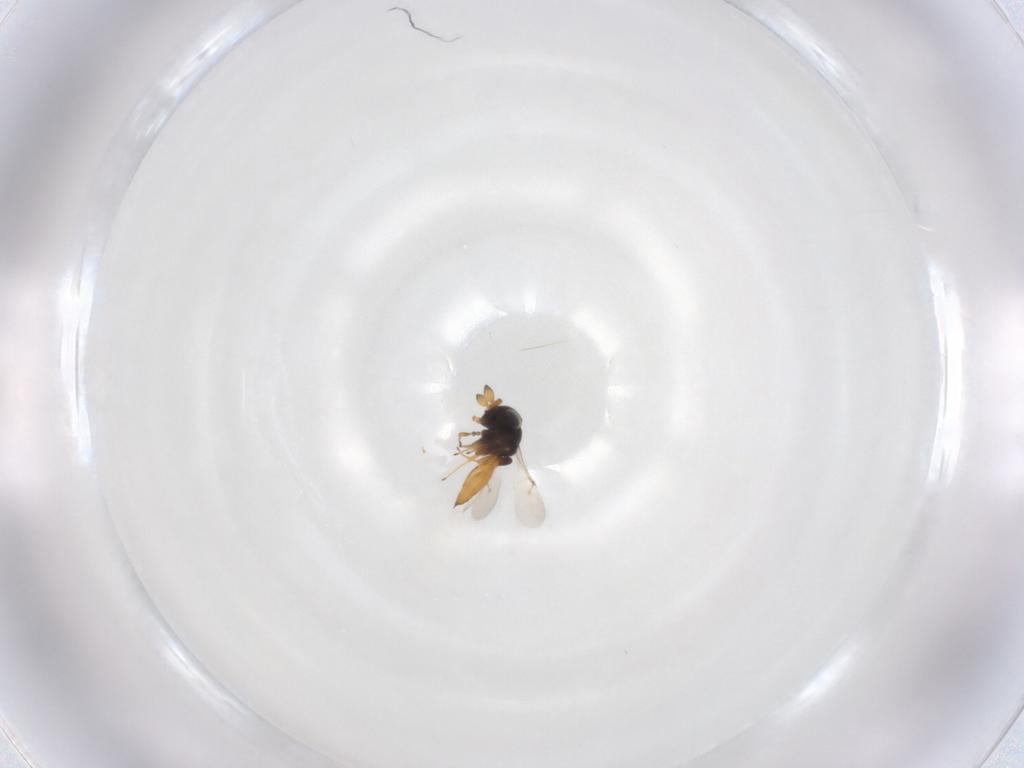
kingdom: Animalia
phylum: Arthropoda
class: Insecta
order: Hymenoptera
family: Scelionidae
